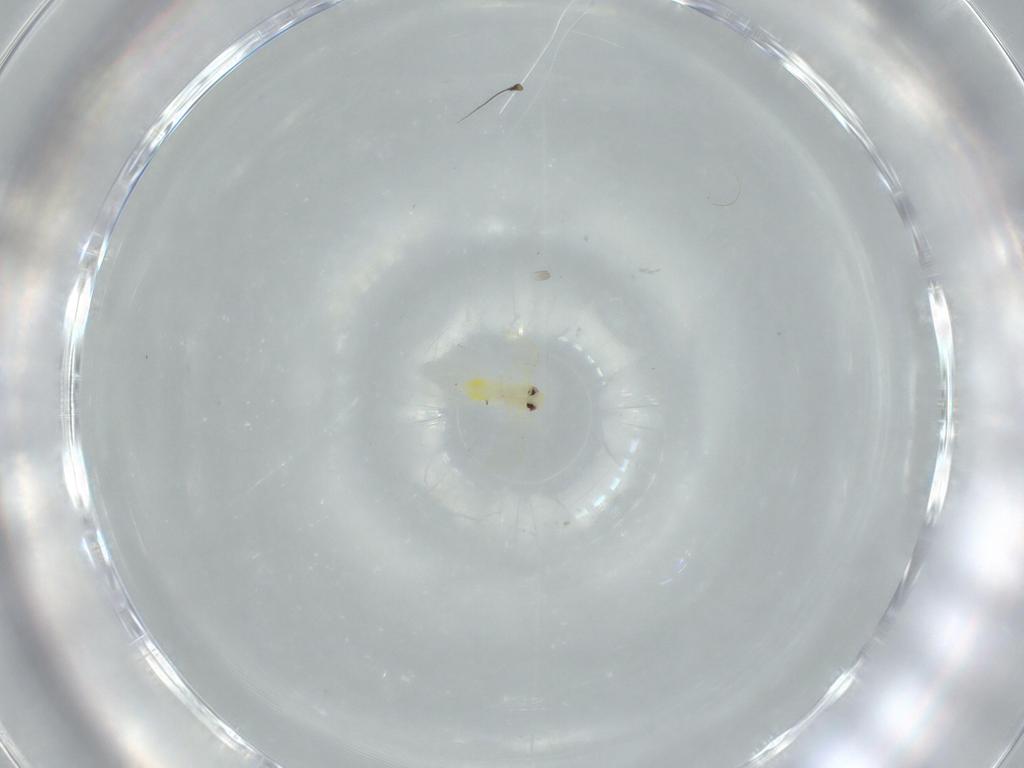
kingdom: Animalia
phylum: Arthropoda
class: Insecta
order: Hemiptera
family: Aleyrodidae
